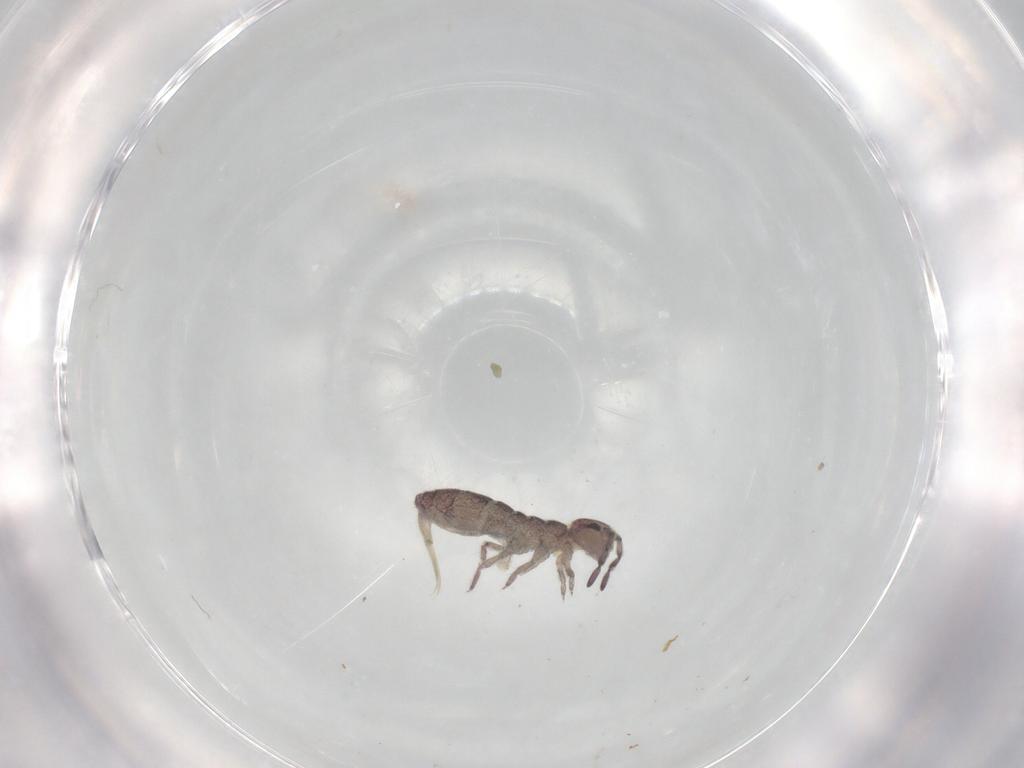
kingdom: Animalia
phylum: Arthropoda
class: Collembola
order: Entomobryomorpha
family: Isotomidae
